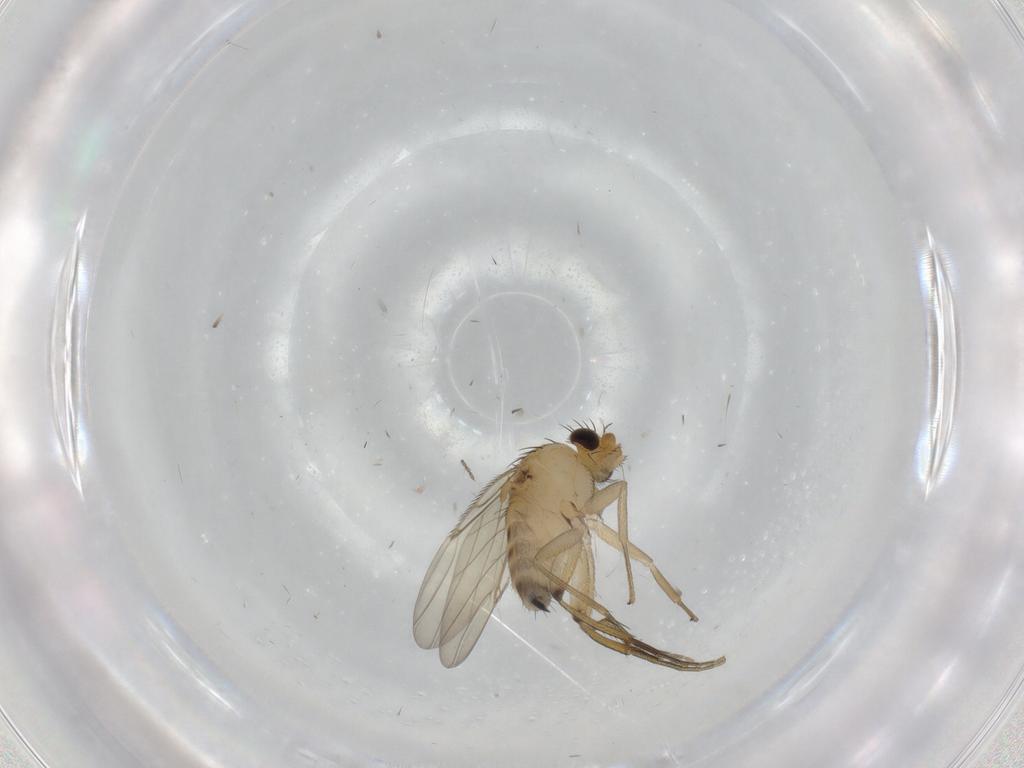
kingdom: Animalia
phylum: Arthropoda
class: Insecta
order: Diptera
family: Phoridae
